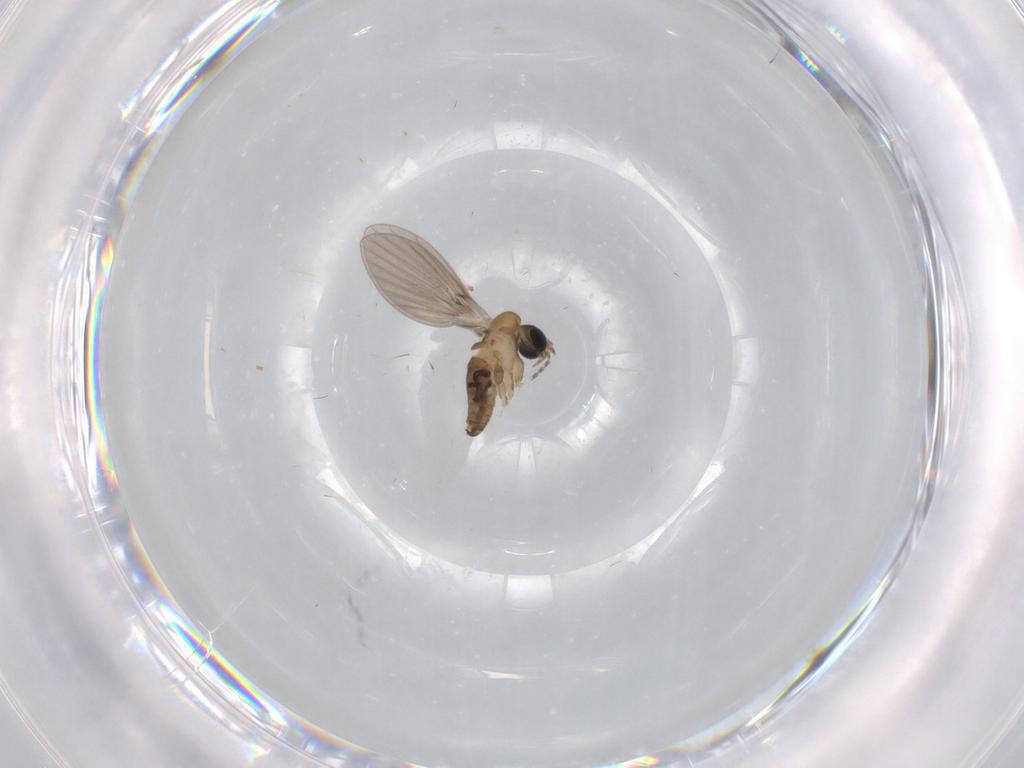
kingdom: Animalia
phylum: Arthropoda
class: Insecta
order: Diptera
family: Cecidomyiidae
